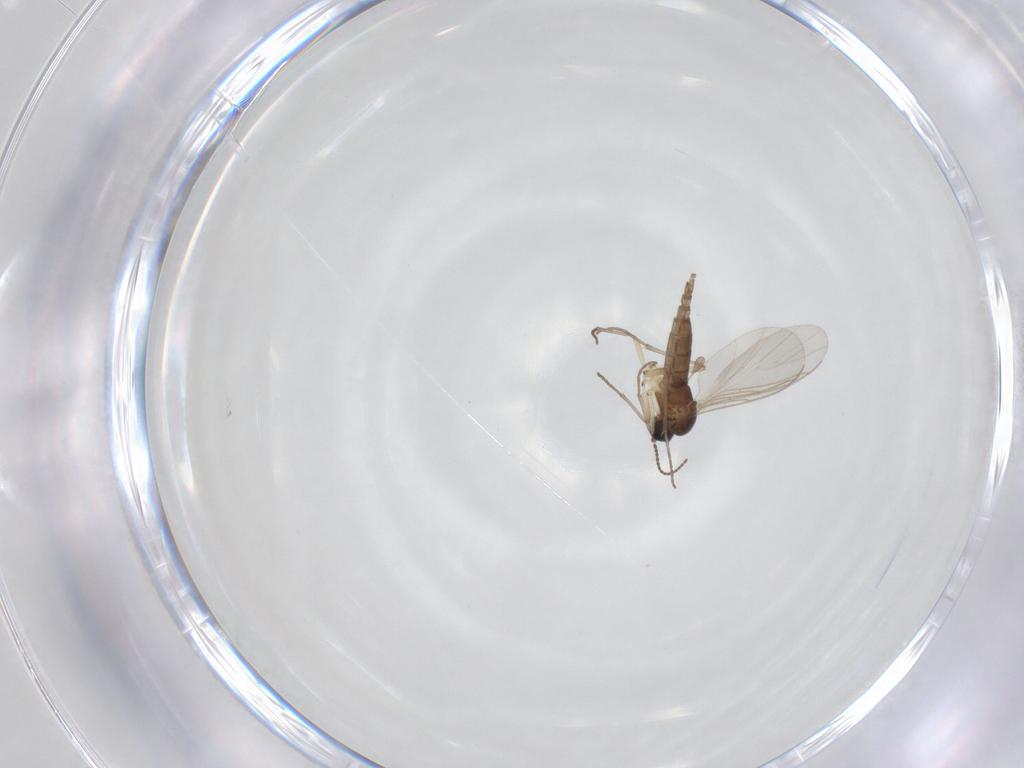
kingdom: Animalia
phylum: Arthropoda
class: Insecta
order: Diptera
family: Sciaridae
